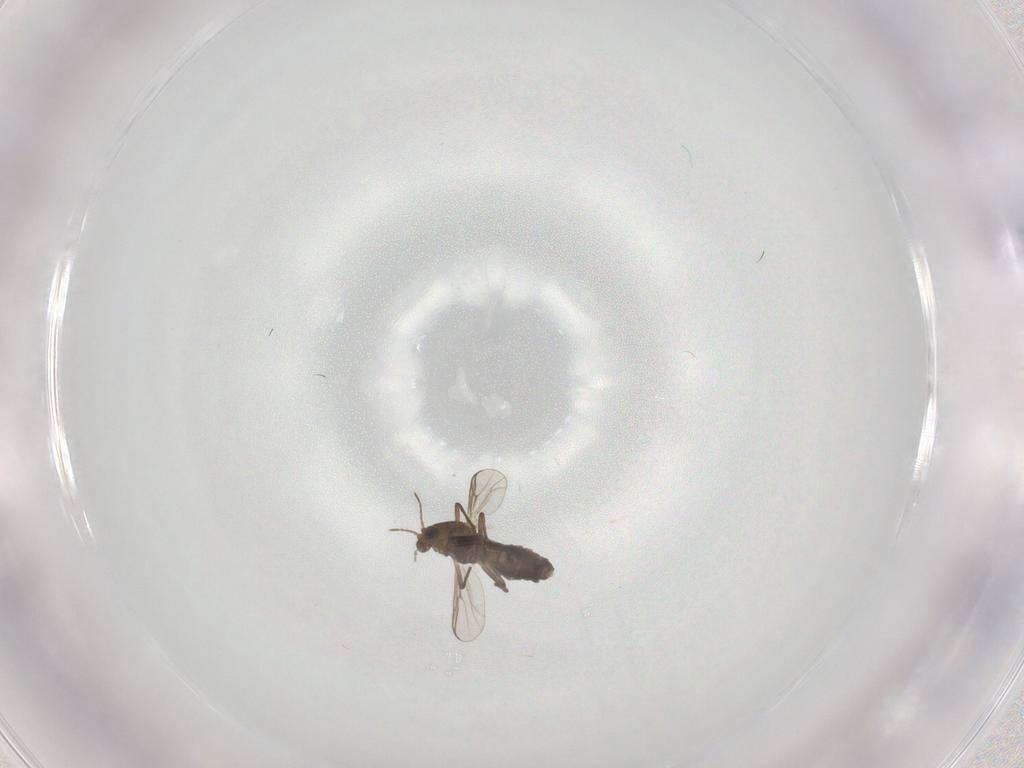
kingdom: Animalia
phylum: Arthropoda
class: Insecta
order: Diptera
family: Chironomidae
